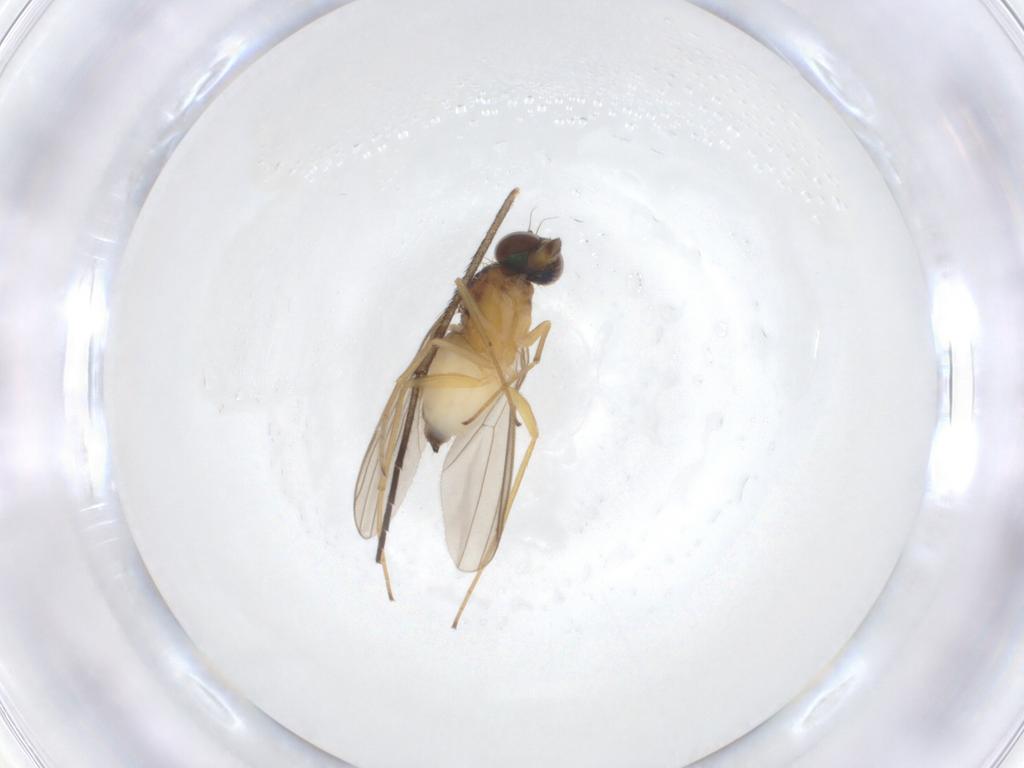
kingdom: Animalia
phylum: Arthropoda
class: Insecta
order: Diptera
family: Dolichopodidae
